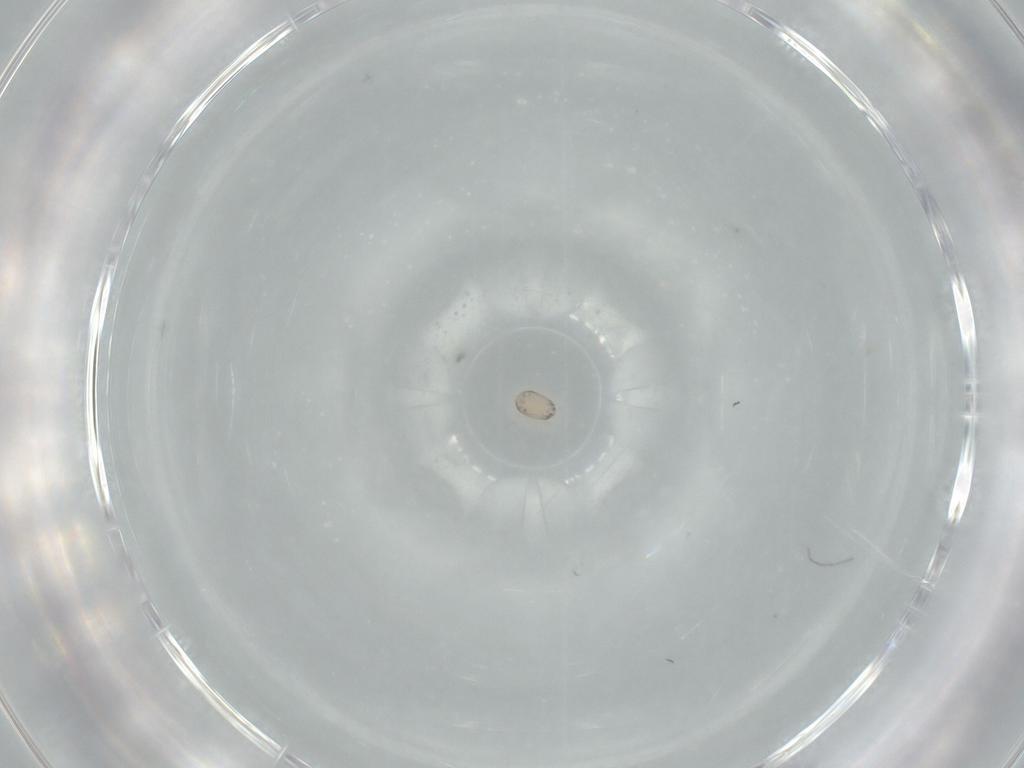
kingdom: Animalia
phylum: Arthropoda
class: Arachnida
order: Sarcoptiformes
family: Acaridae
